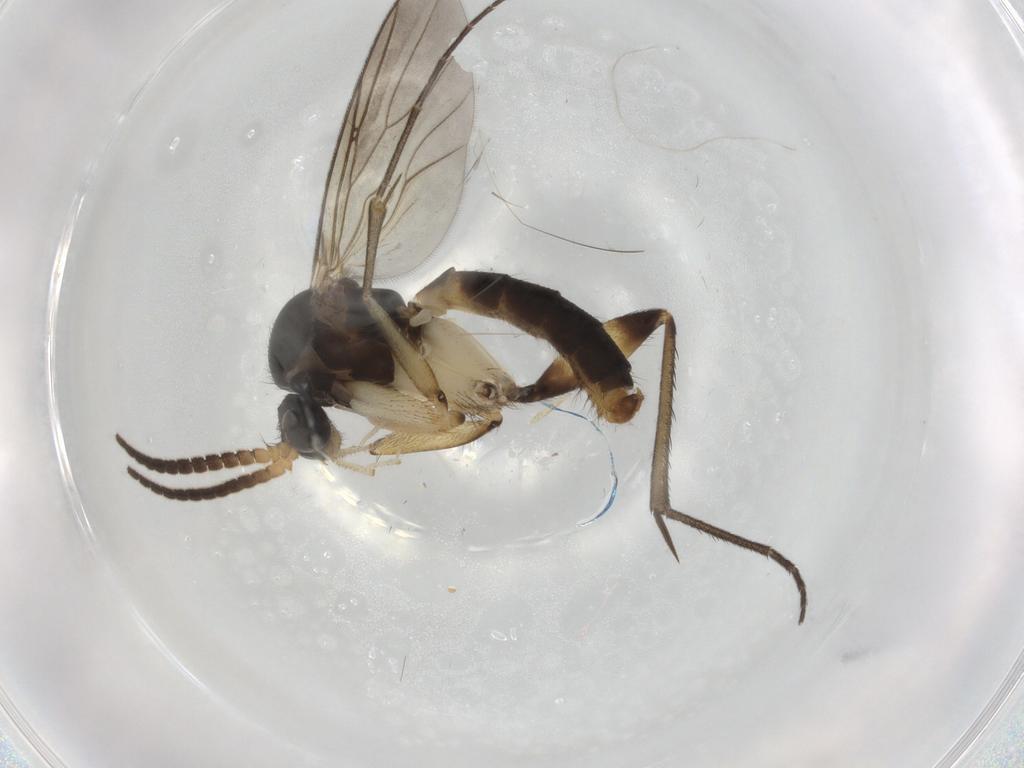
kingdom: Animalia
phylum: Arthropoda
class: Insecta
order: Diptera
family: Mycetophilidae
